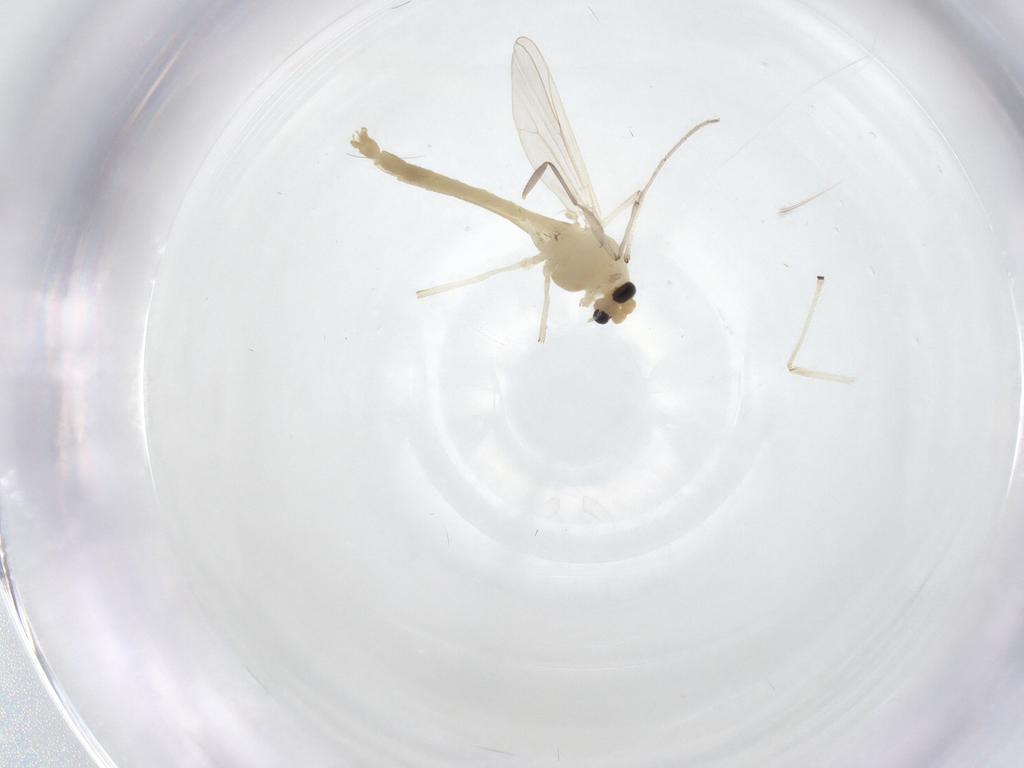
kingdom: Animalia
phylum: Arthropoda
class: Insecta
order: Diptera
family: Chironomidae
